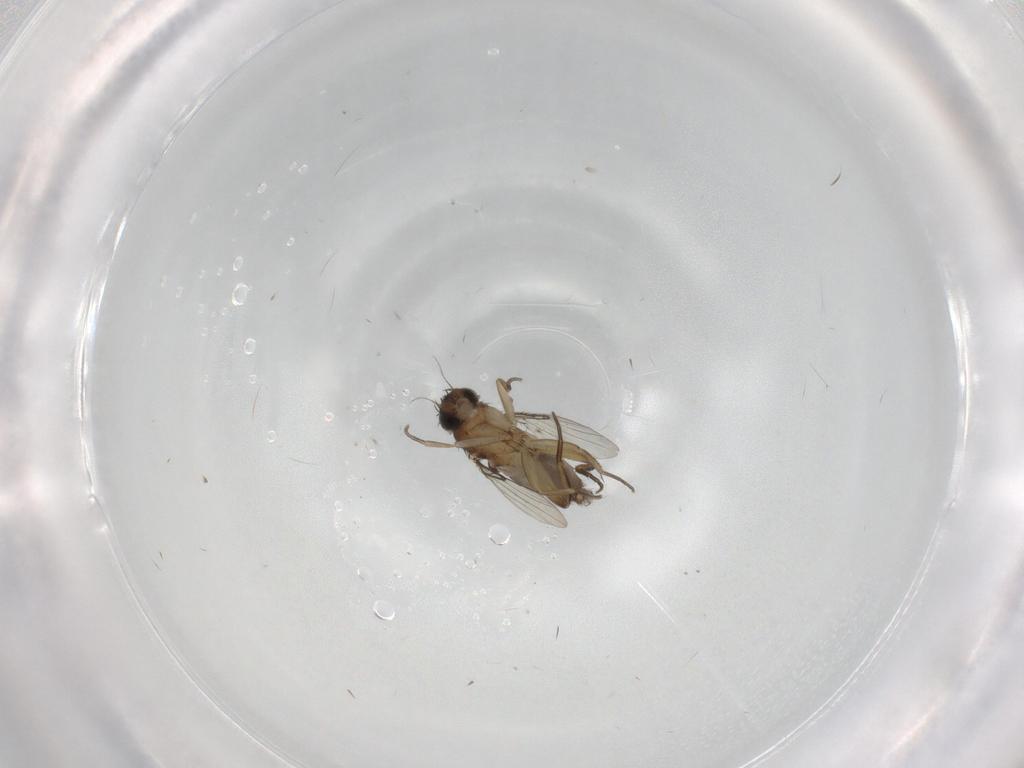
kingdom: Animalia
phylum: Arthropoda
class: Insecta
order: Diptera
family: Phoridae
